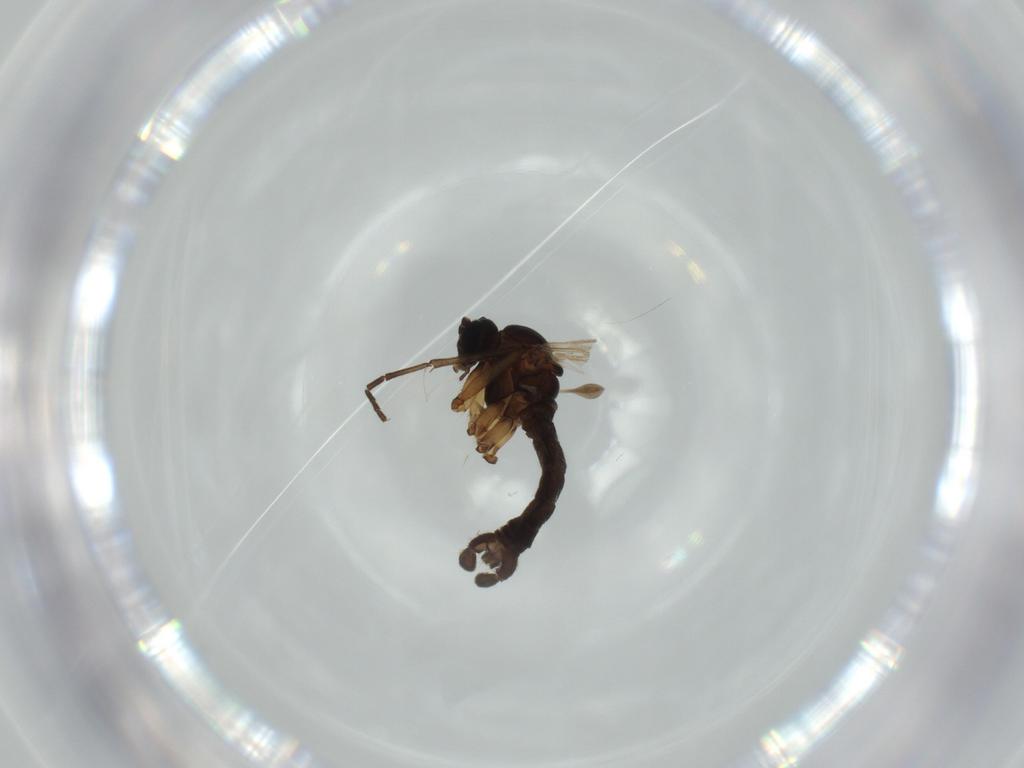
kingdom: Animalia
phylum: Arthropoda
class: Insecta
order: Diptera
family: Sciaridae
